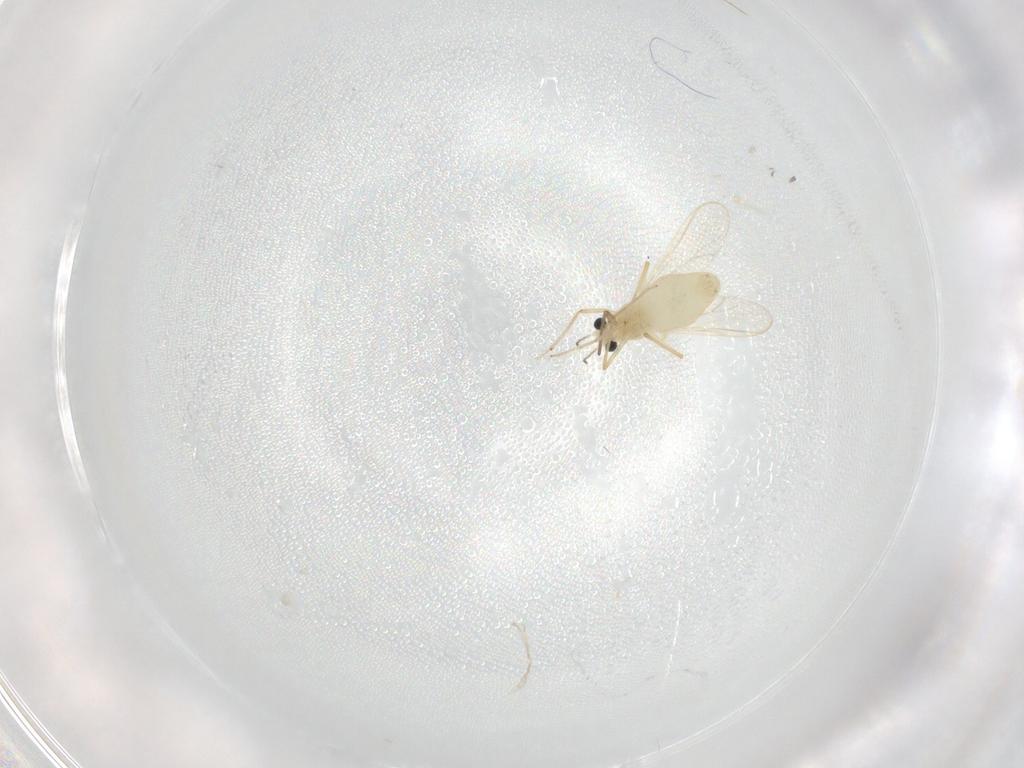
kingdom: Animalia
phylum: Arthropoda
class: Insecta
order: Diptera
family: Chironomidae
